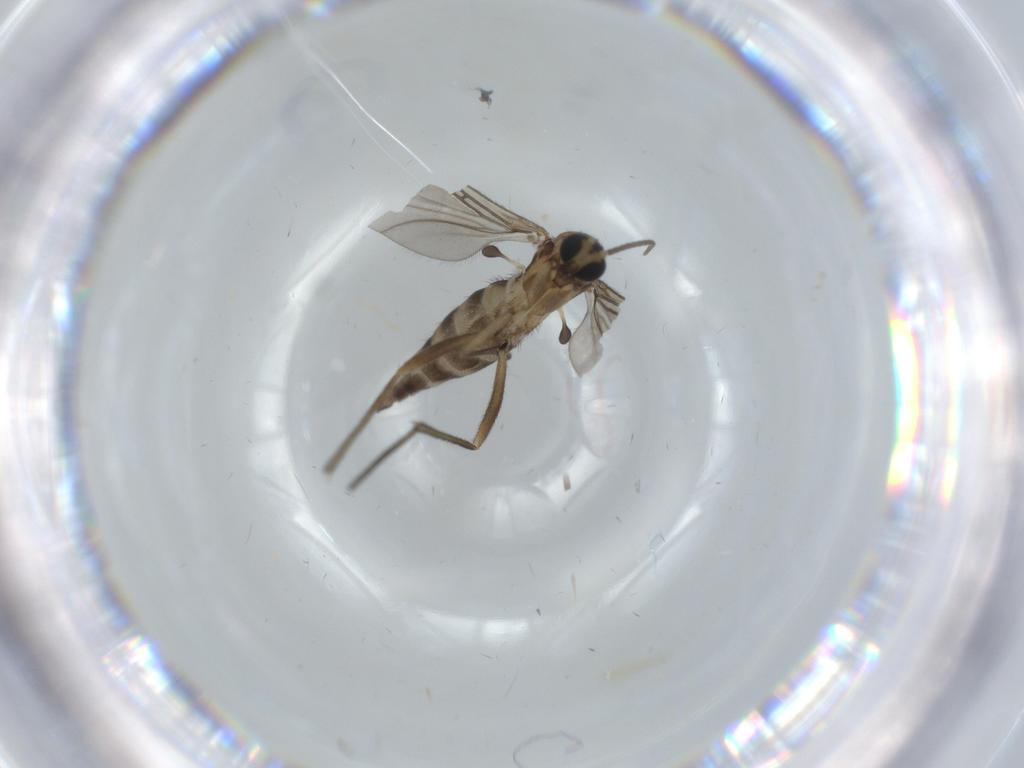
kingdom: Animalia
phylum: Arthropoda
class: Insecta
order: Diptera
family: Sciaridae
